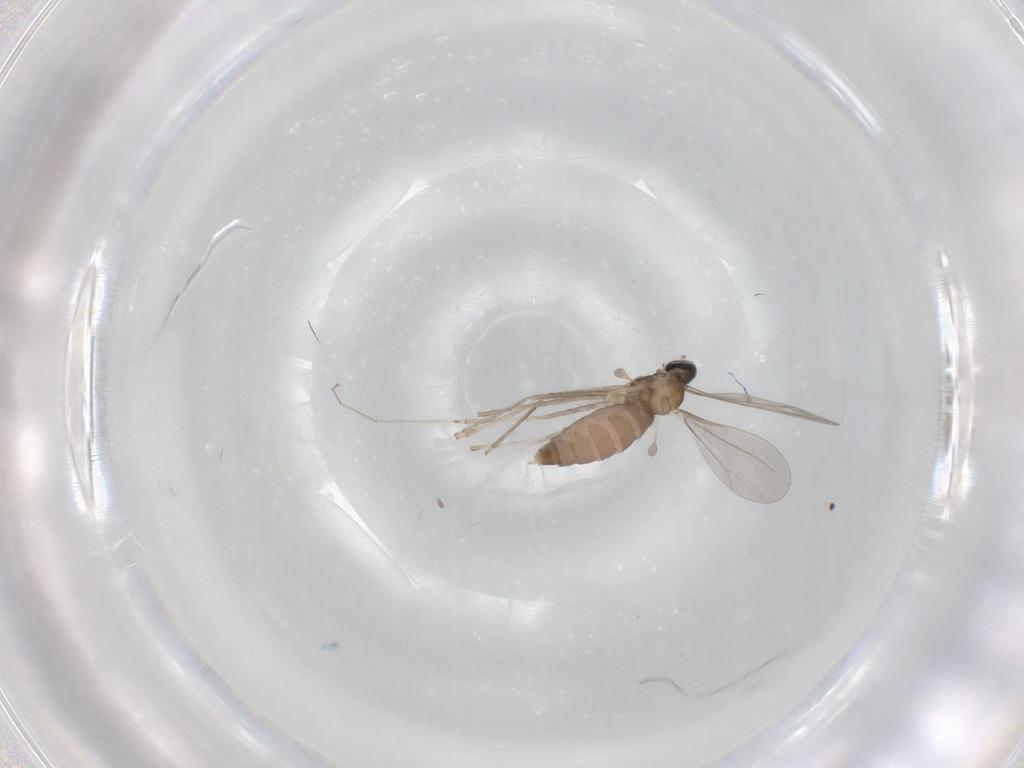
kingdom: Animalia
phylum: Arthropoda
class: Insecta
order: Diptera
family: Cecidomyiidae
